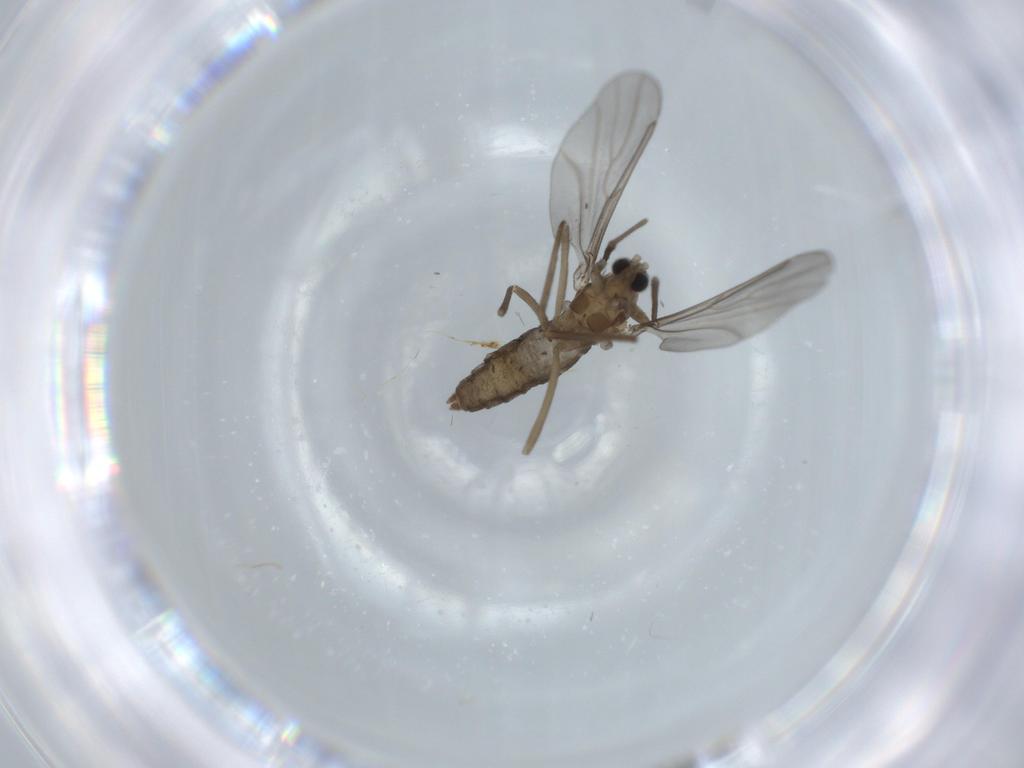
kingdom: Animalia
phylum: Arthropoda
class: Insecta
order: Diptera
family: Cecidomyiidae
